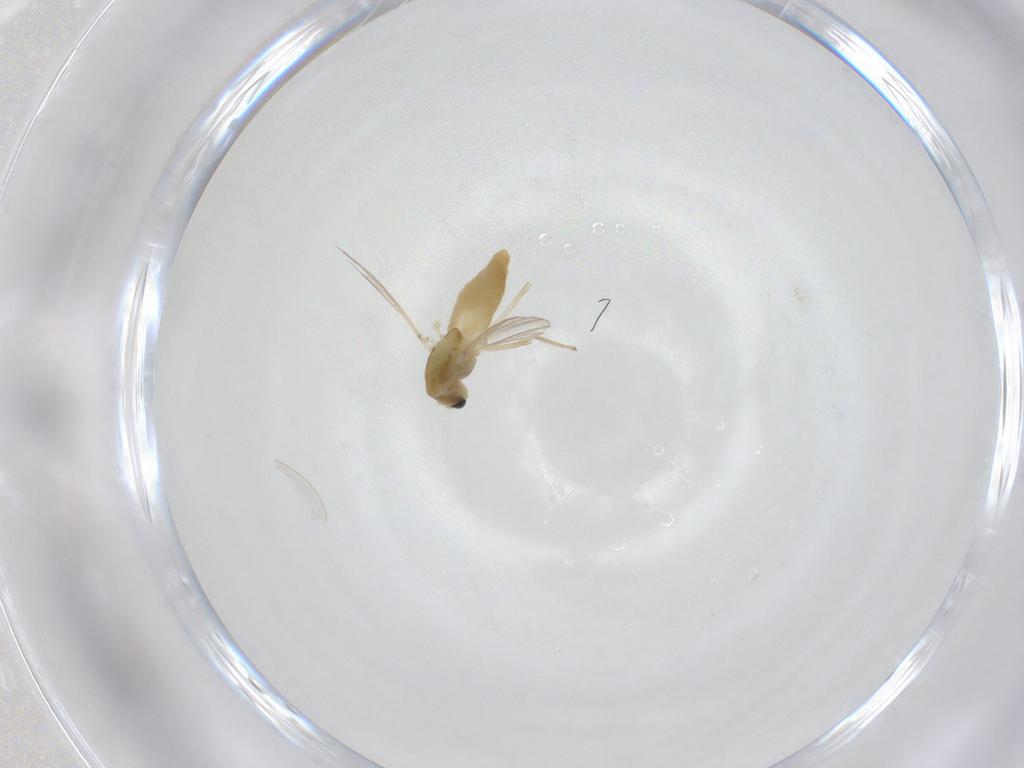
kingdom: Animalia
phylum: Arthropoda
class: Insecta
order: Diptera
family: Chironomidae
